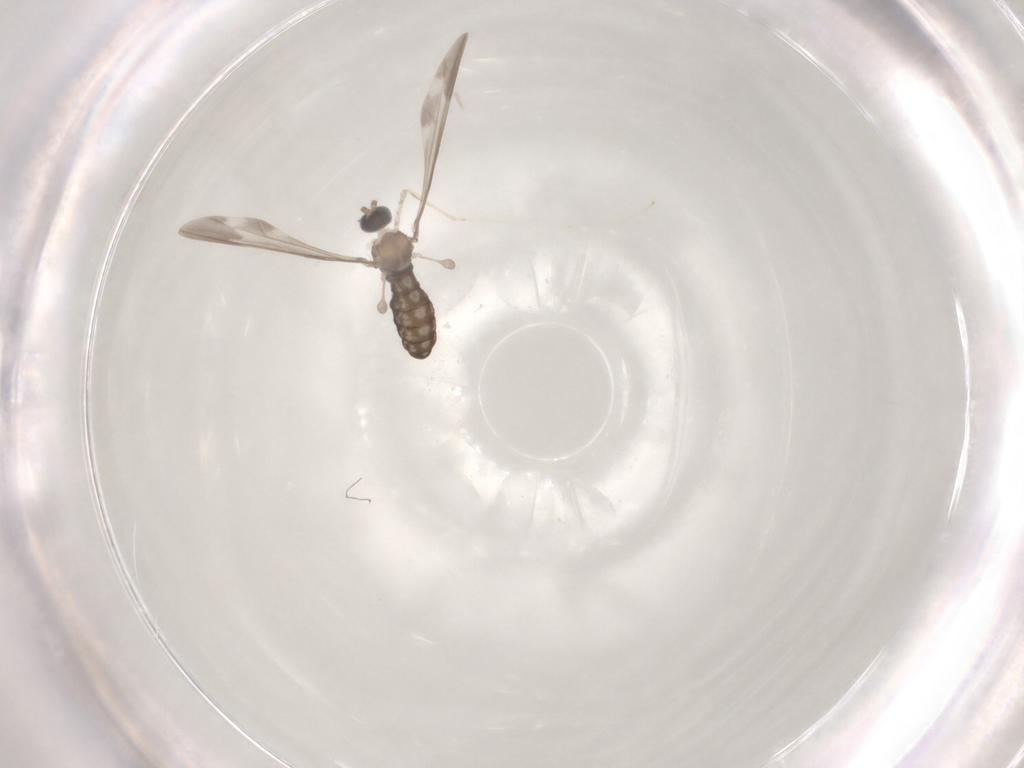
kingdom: Animalia
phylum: Arthropoda
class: Insecta
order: Diptera
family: Cecidomyiidae
